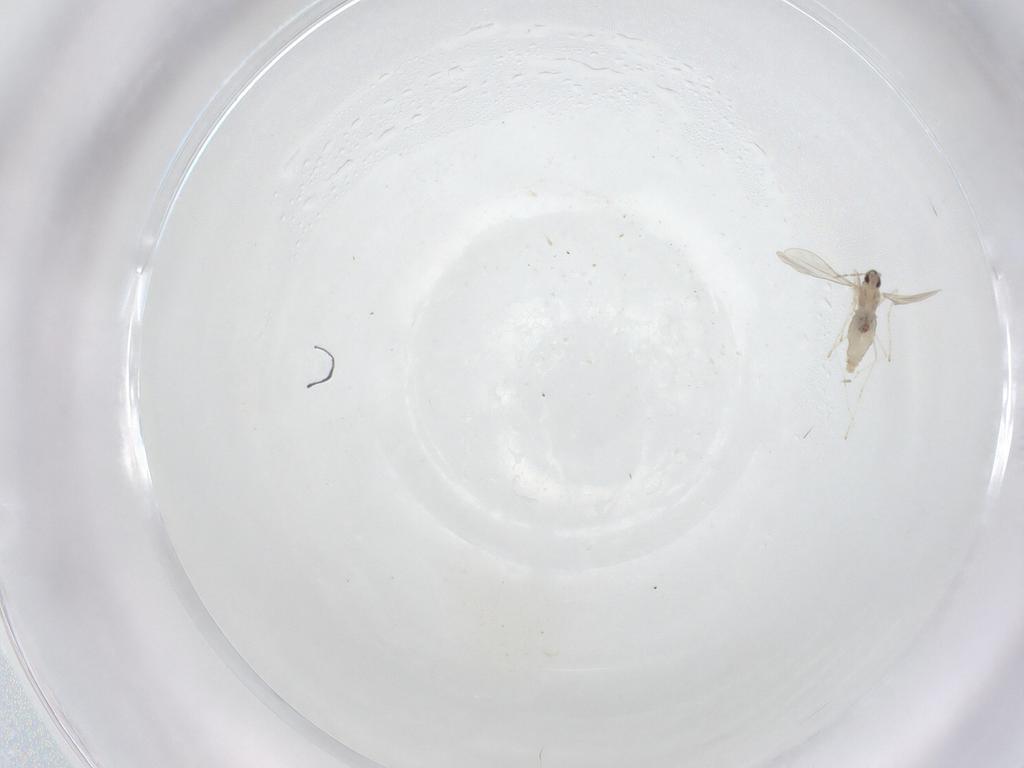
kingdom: Animalia
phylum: Arthropoda
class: Insecta
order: Diptera
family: Cecidomyiidae
